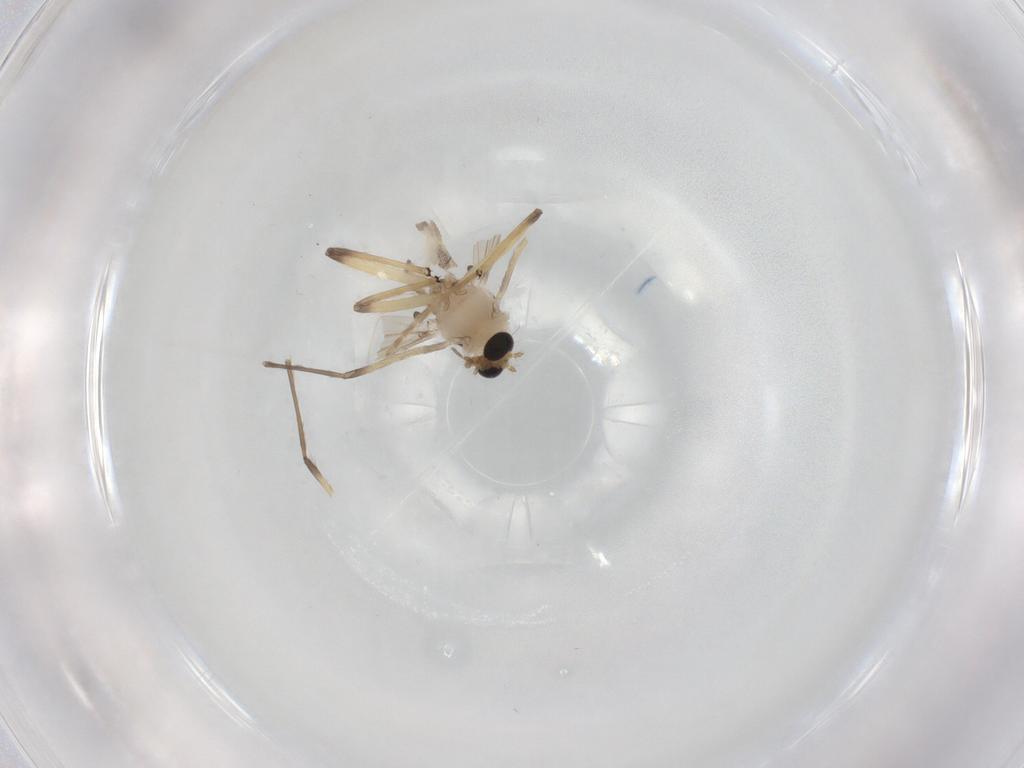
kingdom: Animalia
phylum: Arthropoda
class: Insecta
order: Diptera
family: Chironomidae
